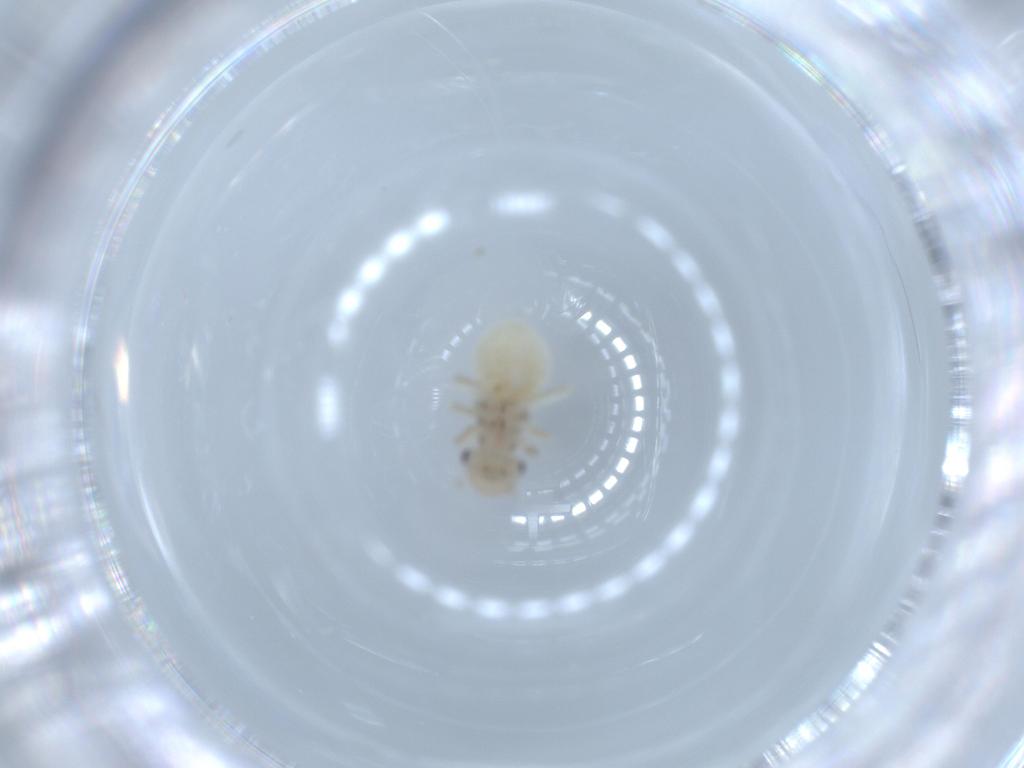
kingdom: Animalia
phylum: Arthropoda
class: Insecta
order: Psocodea
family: Amphipsocidae
